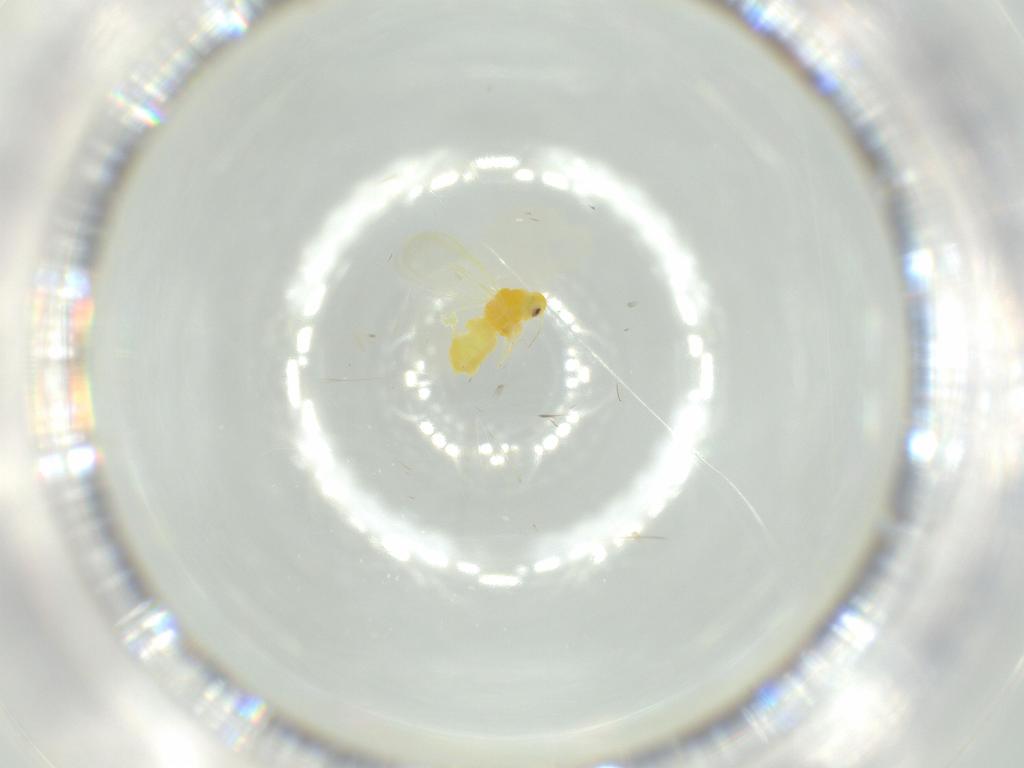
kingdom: Animalia
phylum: Arthropoda
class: Insecta
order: Hemiptera
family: Aleyrodidae
